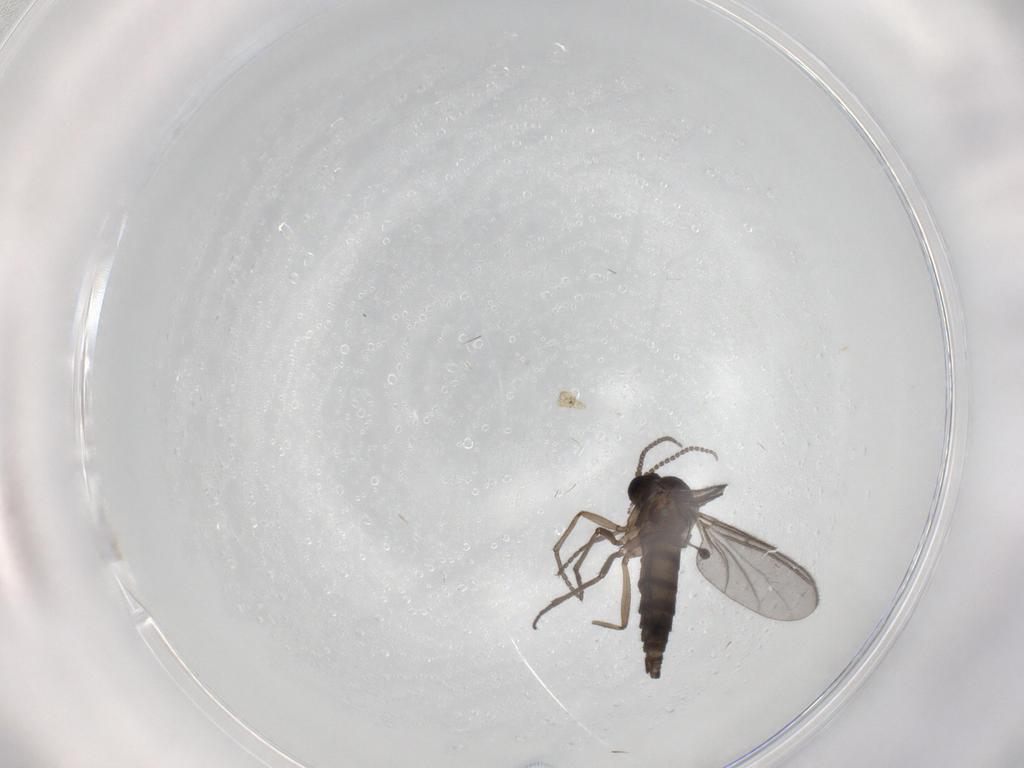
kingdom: Animalia
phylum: Arthropoda
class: Insecta
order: Diptera
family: Sciaridae
